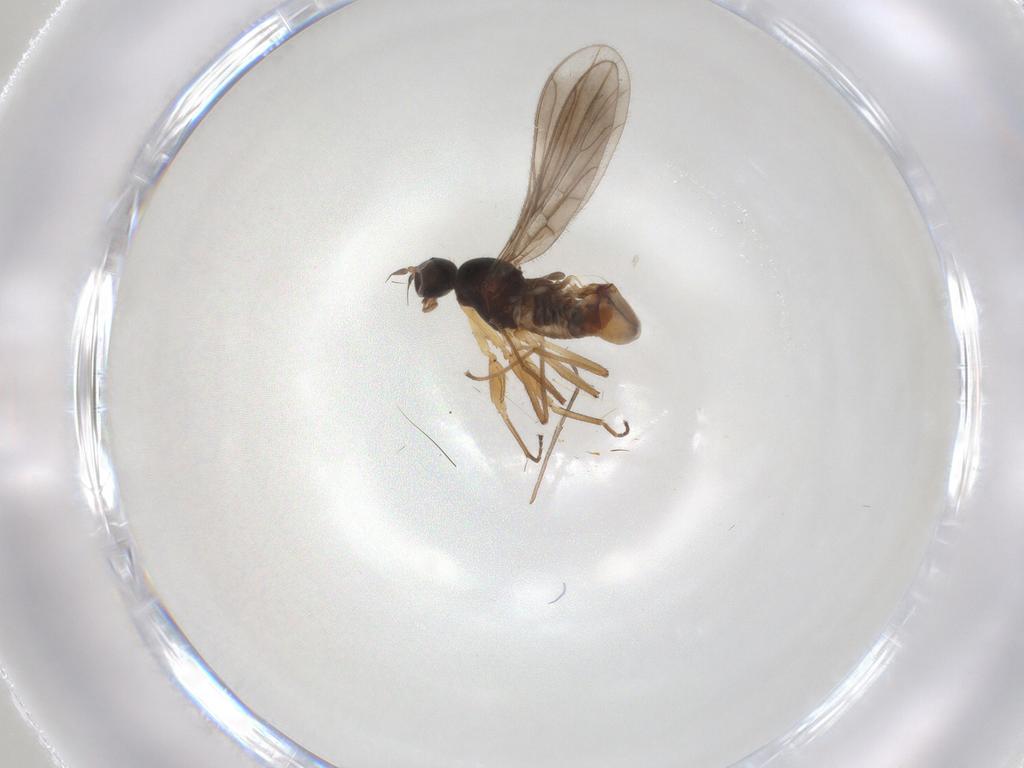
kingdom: Animalia
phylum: Arthropoda
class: Insecta
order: Diptera
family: Empididae
